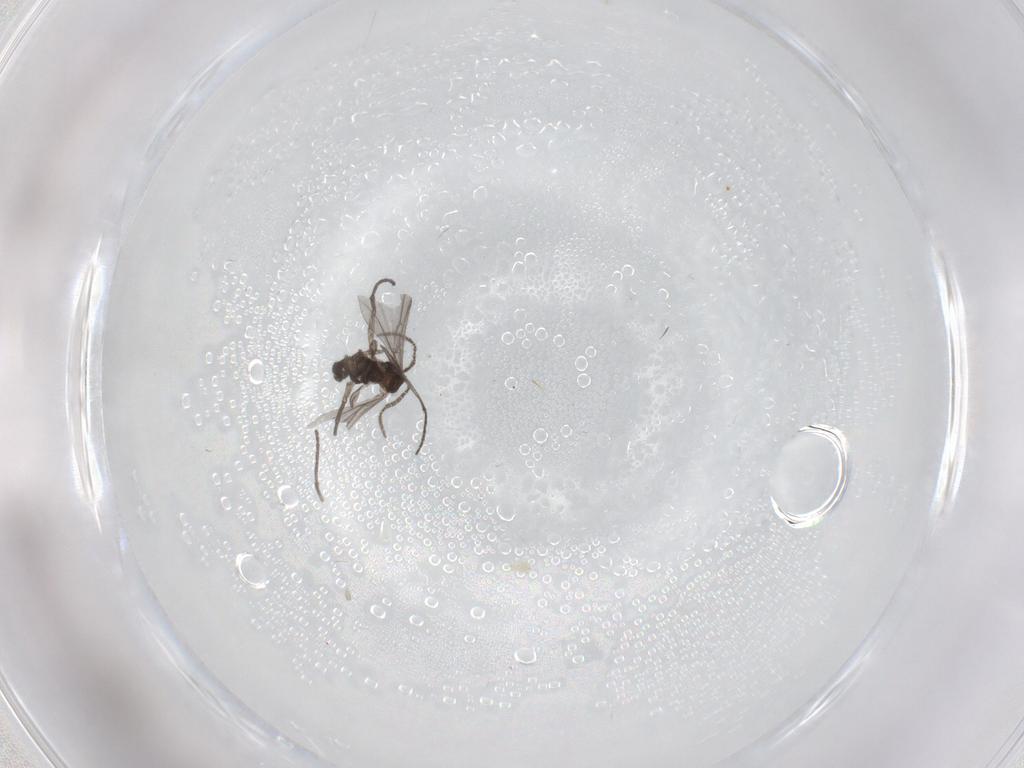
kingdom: Animalia
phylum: Arthropoda
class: Insecta
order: Diptera
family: Sciaridae
